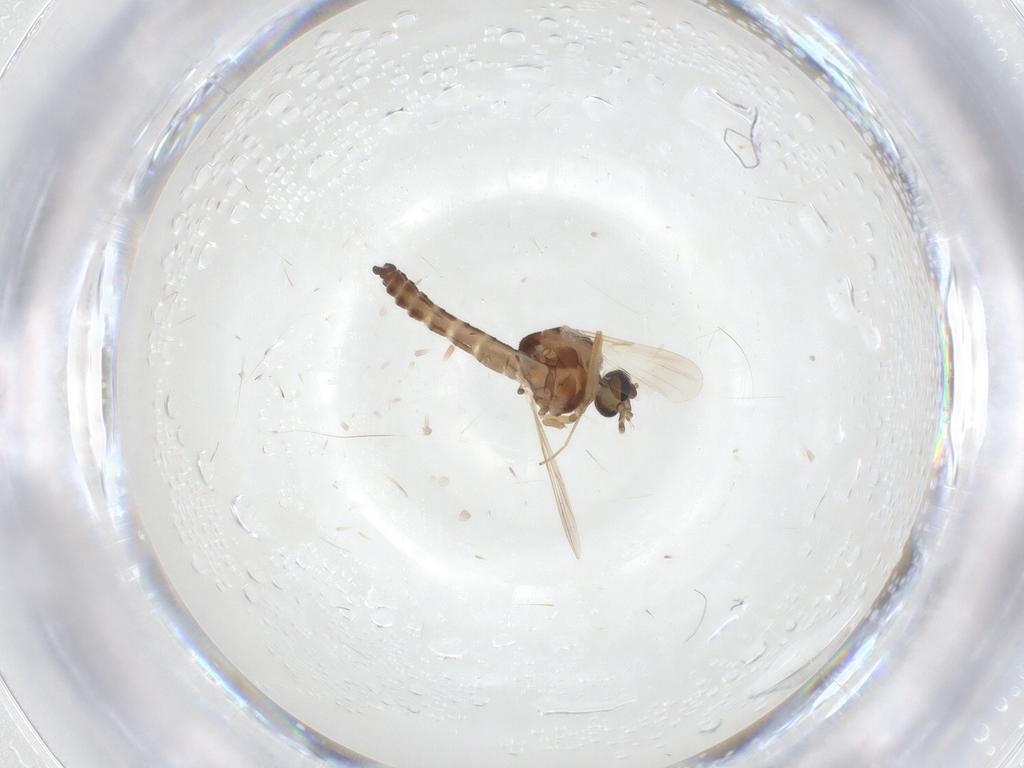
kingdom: Animalia
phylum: Arthropoda
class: Insecta
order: Diptera
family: Ceratopogonidae
